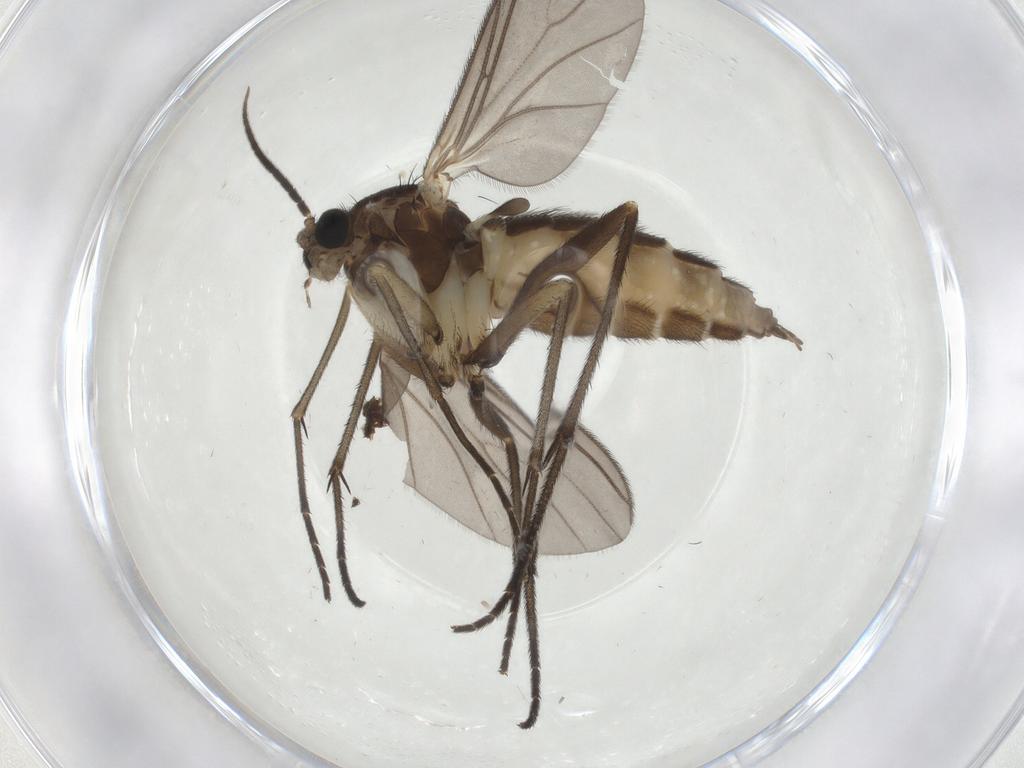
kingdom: Animalia
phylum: Arthropoda
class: Insecta
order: Diptera
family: Sciaridae
